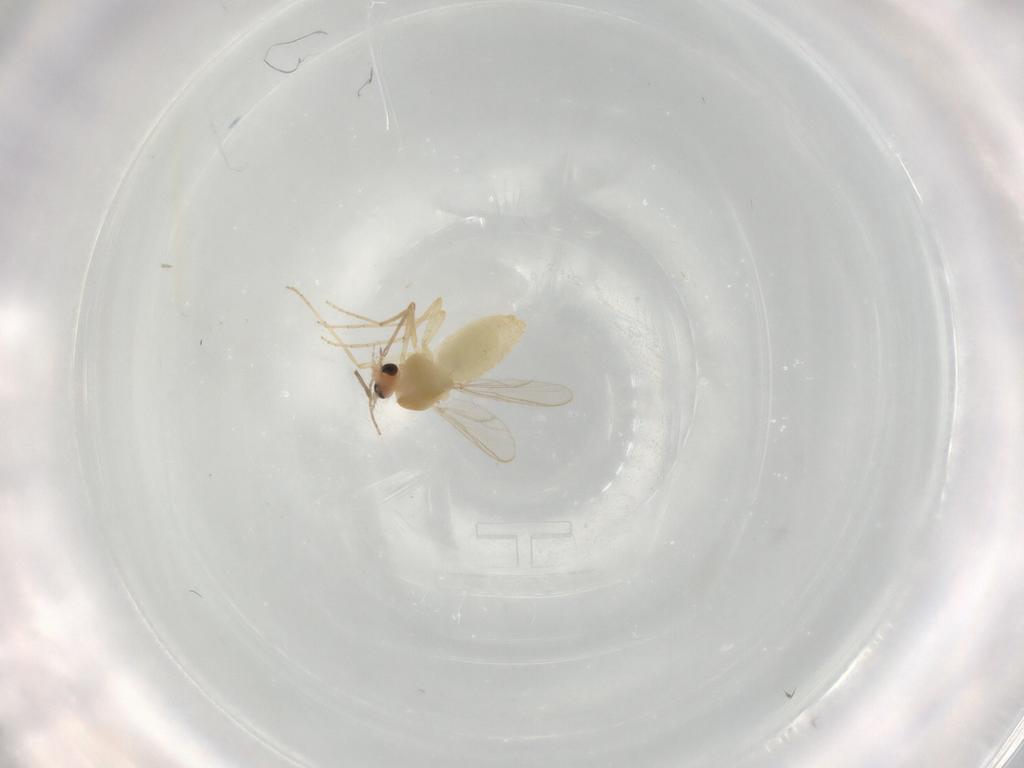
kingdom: Animalia
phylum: Arthropoda
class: Insecta
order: Diptera
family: Chironomidae
